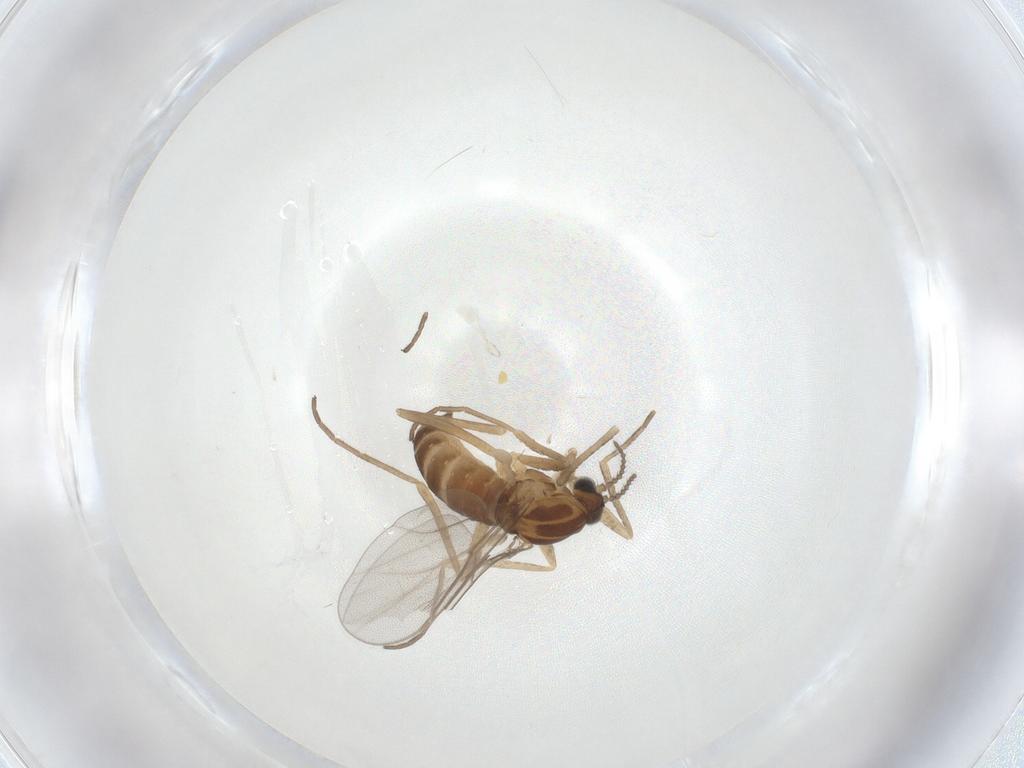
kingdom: Animalia
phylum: Arthropoda
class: Insecta
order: Diptera
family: Cecidomyiidae
